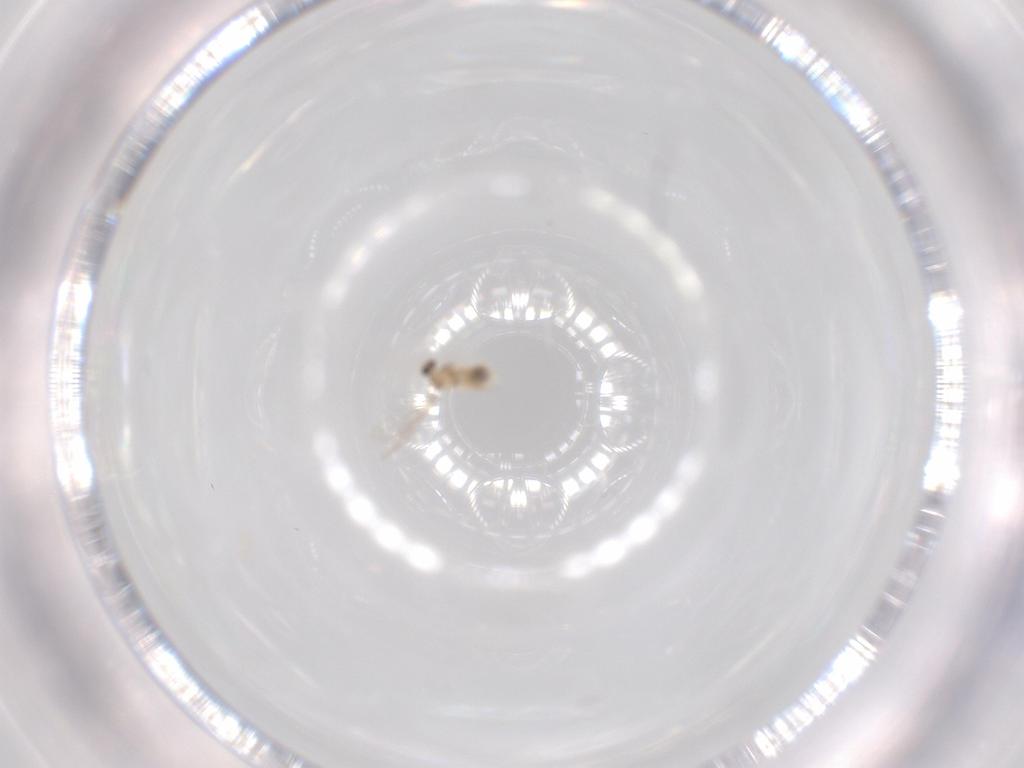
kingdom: Animalia
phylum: Arthropoda
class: Insecta
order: Diptera
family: Cecidomyiidae
